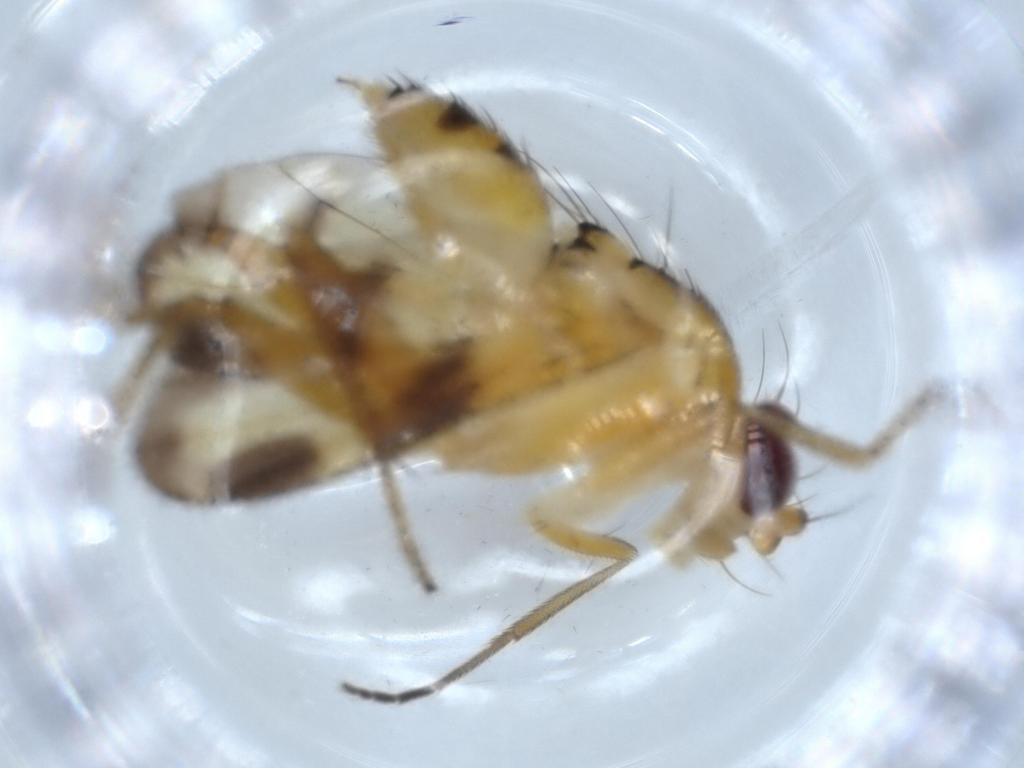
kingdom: Animalia
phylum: Arthropoda
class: Insecta
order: Diptera
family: Clusiidae
